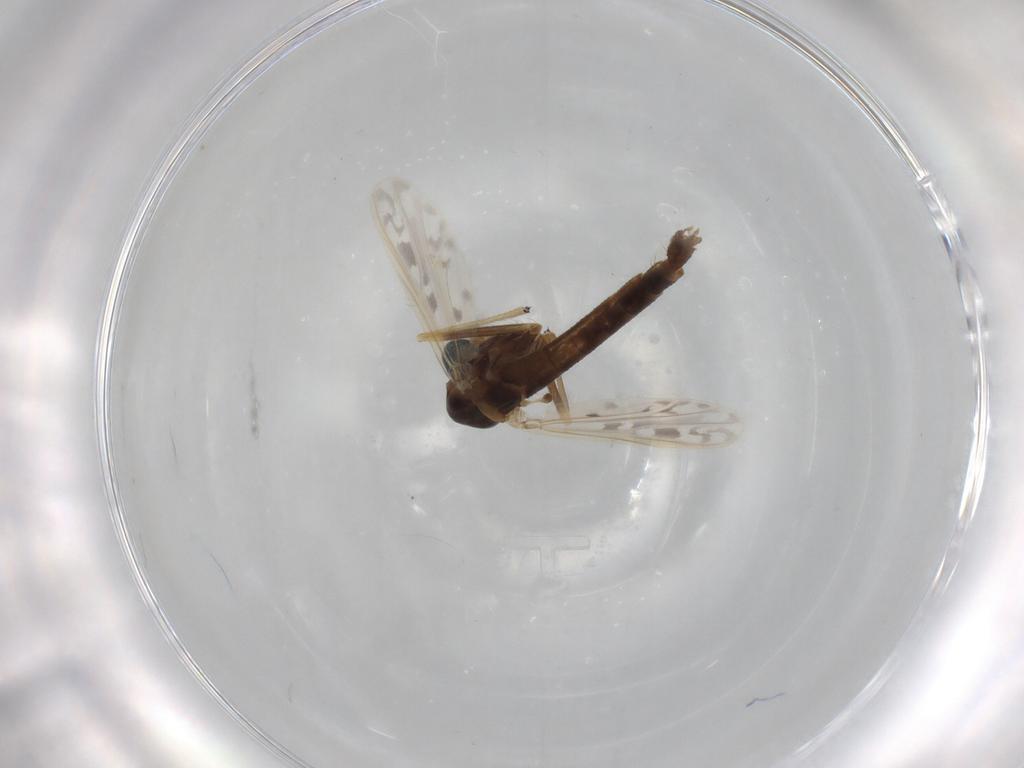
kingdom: Animalia
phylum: Arthropoda
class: Insecta
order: Diptera
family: Chironomidae
